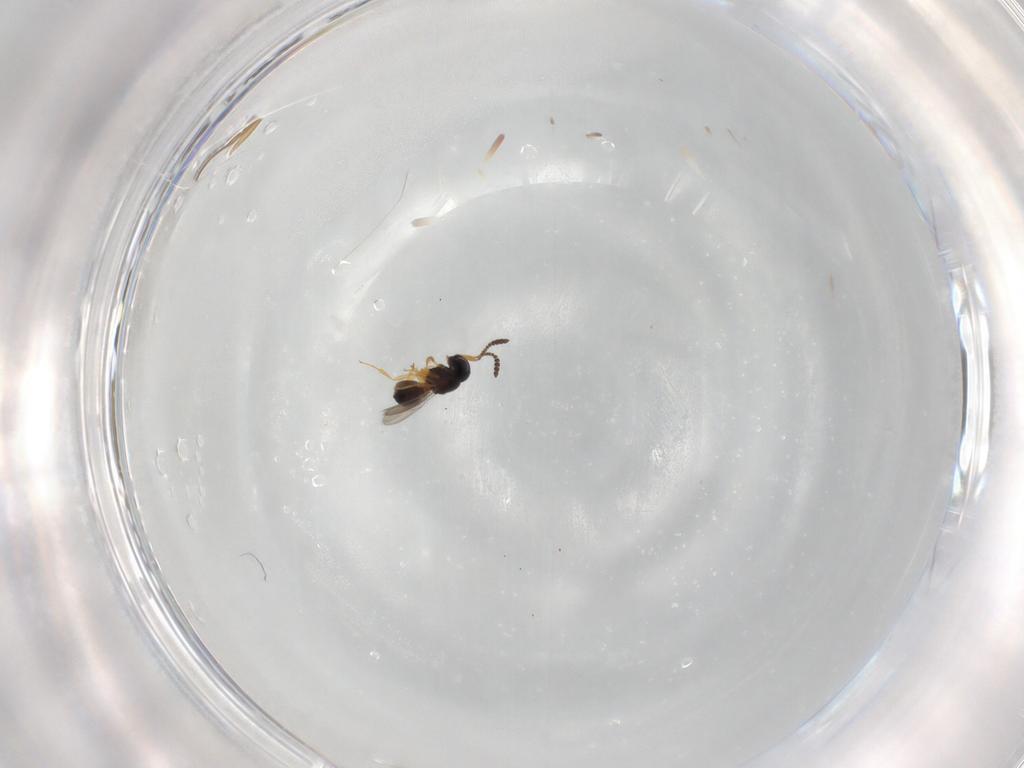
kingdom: Animalia
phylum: Arthropoda
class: Insecta
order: Hymenoptera
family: Scelionidae
